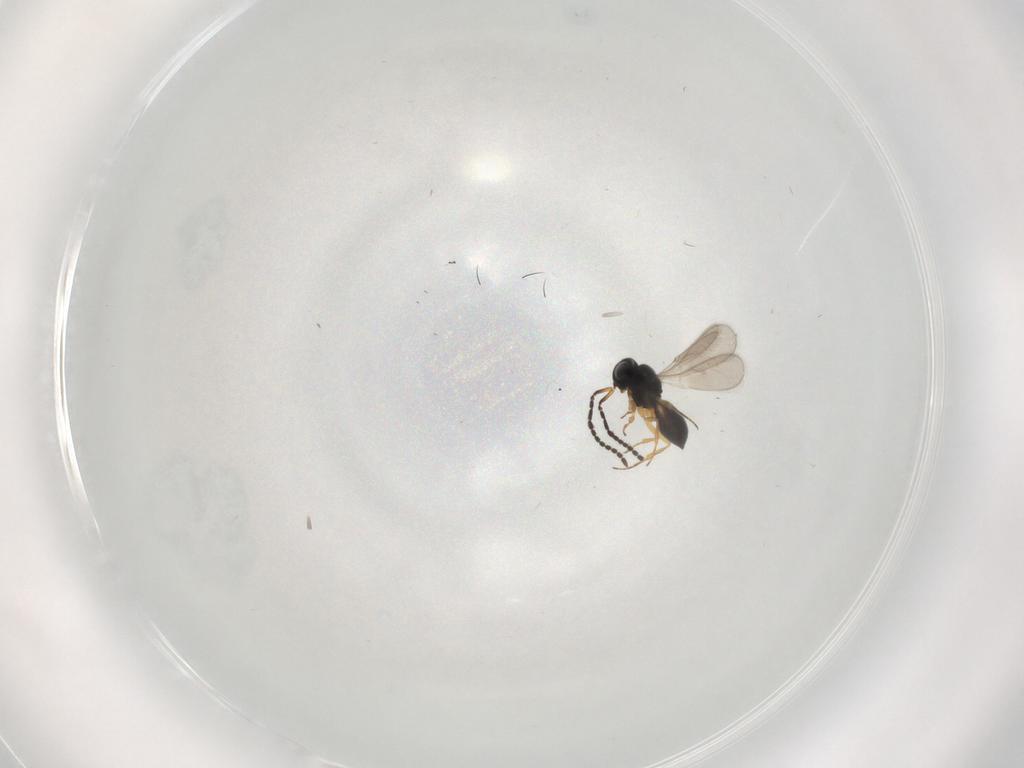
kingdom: Animalia
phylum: Arthropoda
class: Insecta
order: Hymenoptera
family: Scelionidae
